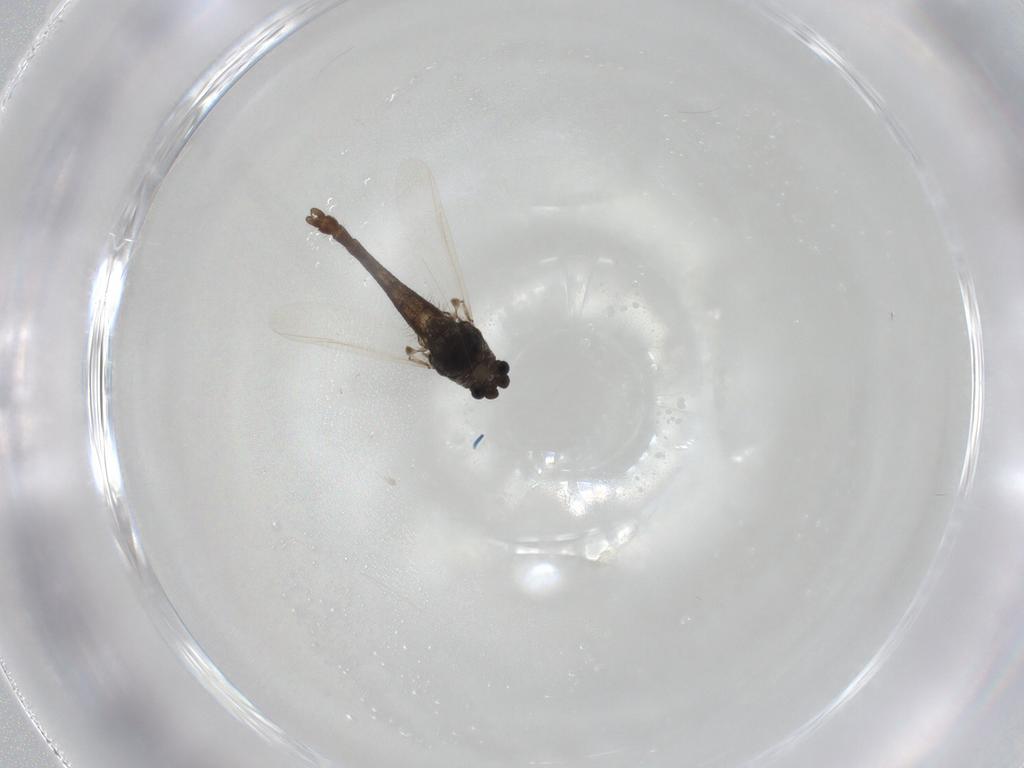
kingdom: Animalia
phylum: Arthropoda
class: Insecta
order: Diptera
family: Chironomidae
